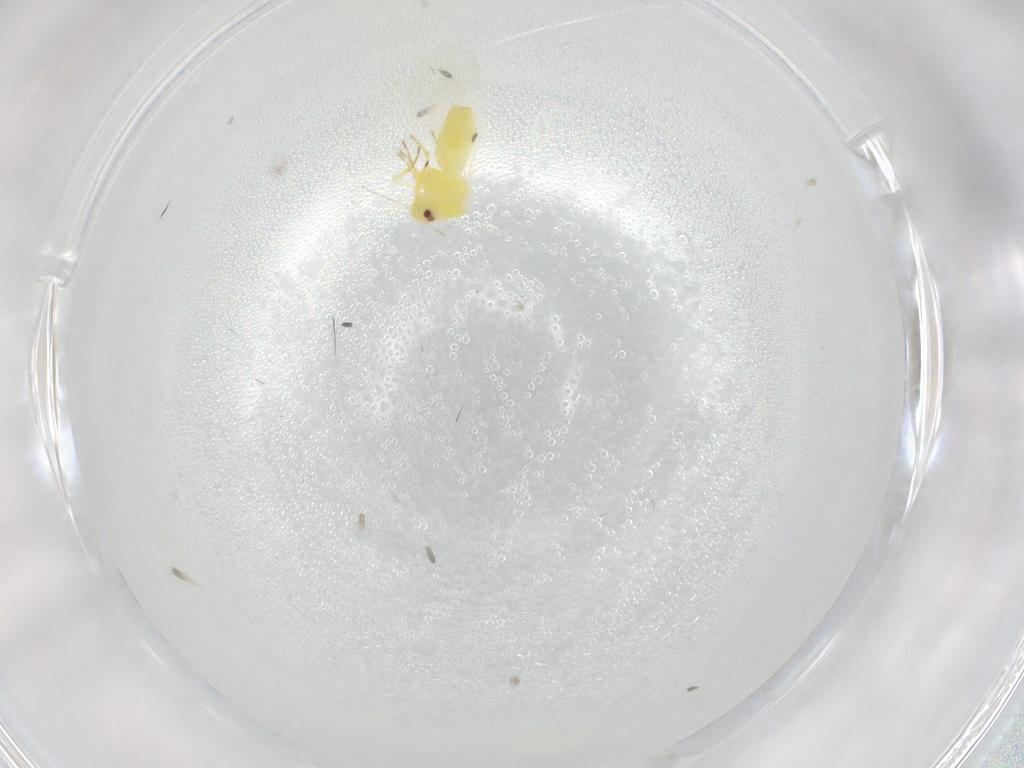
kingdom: Animalia
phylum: Arthropoda
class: Insecta
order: Hemiptera
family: Aleyrodidae
